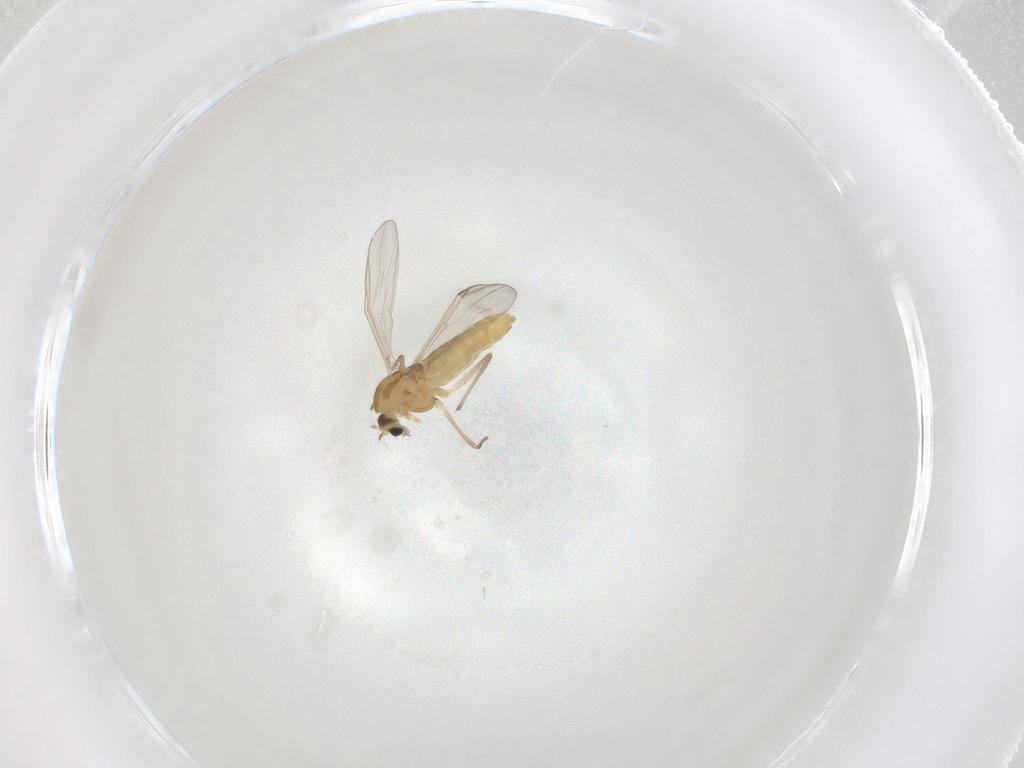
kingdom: Animalia
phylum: Arthropoda
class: Insecta
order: Diptera
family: Chironomidae
